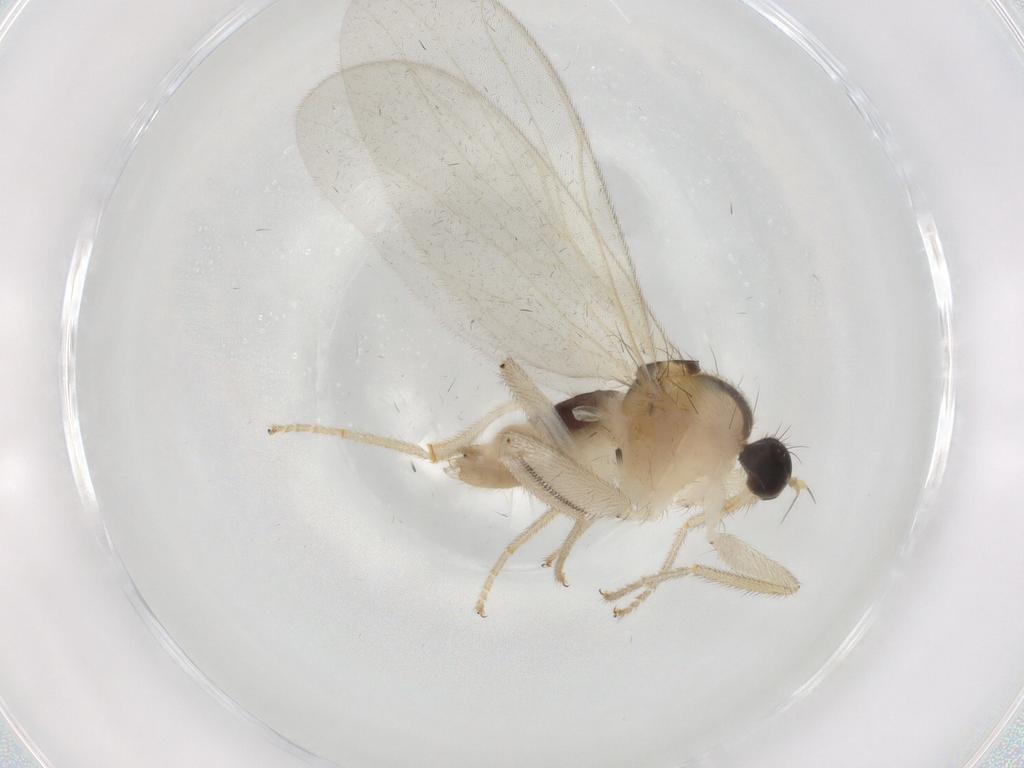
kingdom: Animalia
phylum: Arthropoda
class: Insecta
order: Diptera
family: Hybotidae
